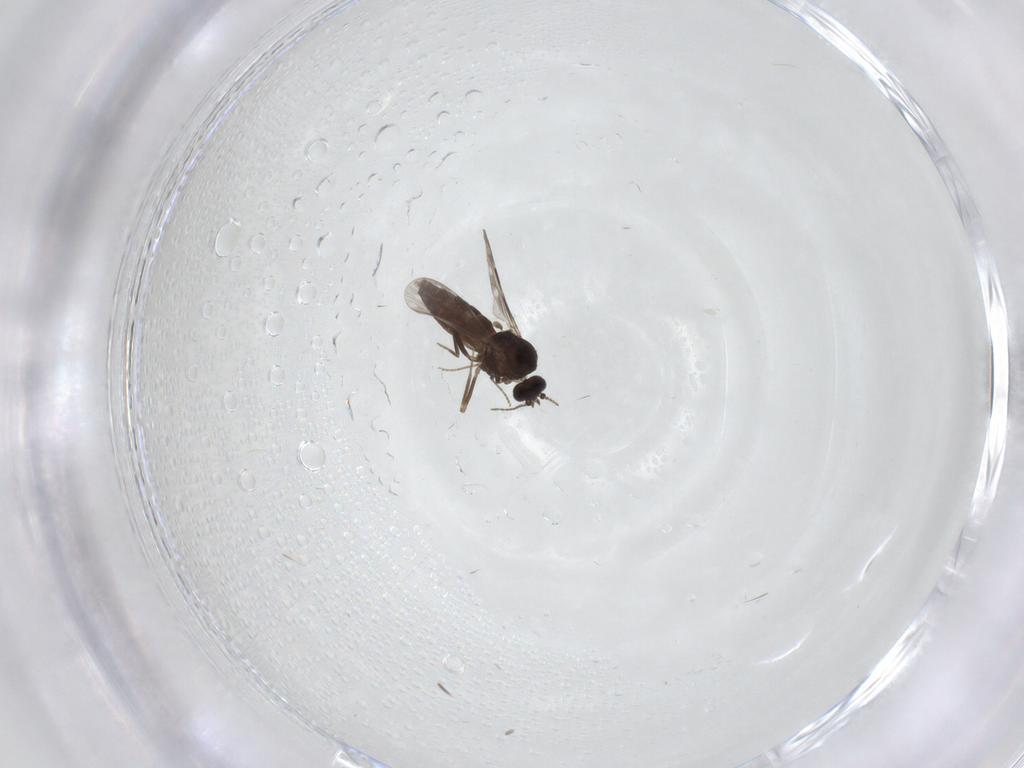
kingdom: Animalia
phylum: Arthropoda
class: Insecta
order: Diptera
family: Sciaridae
